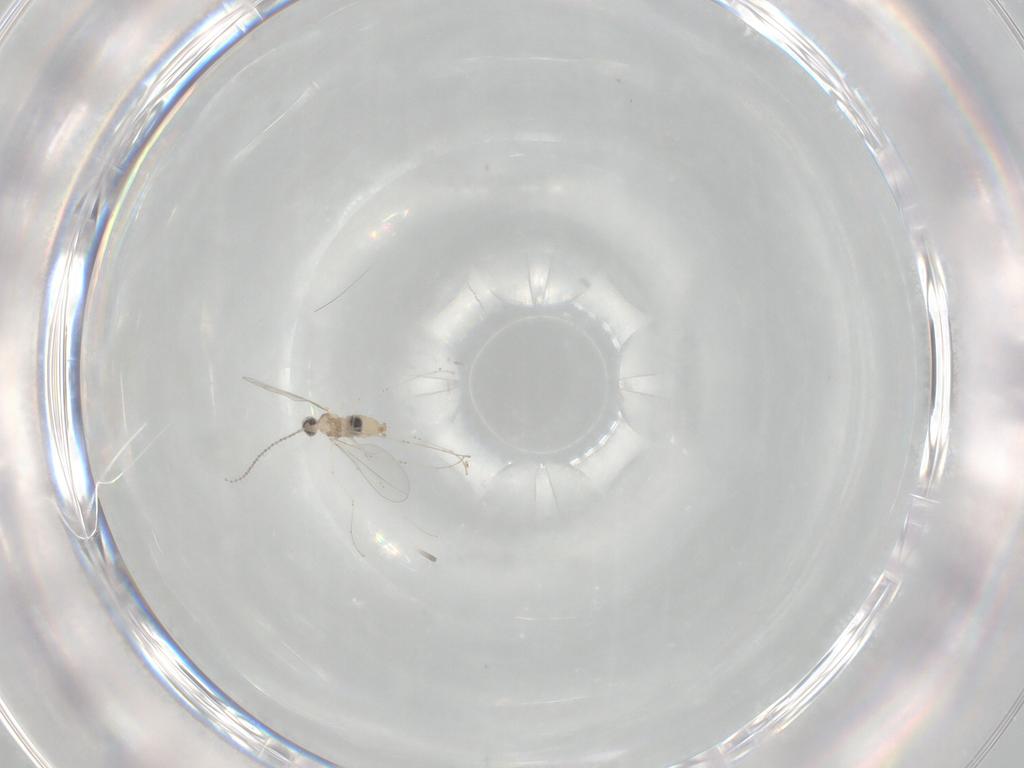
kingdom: Animalia
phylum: Arthropoda
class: Insecta
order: Diptera
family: Cecidomyiidae
